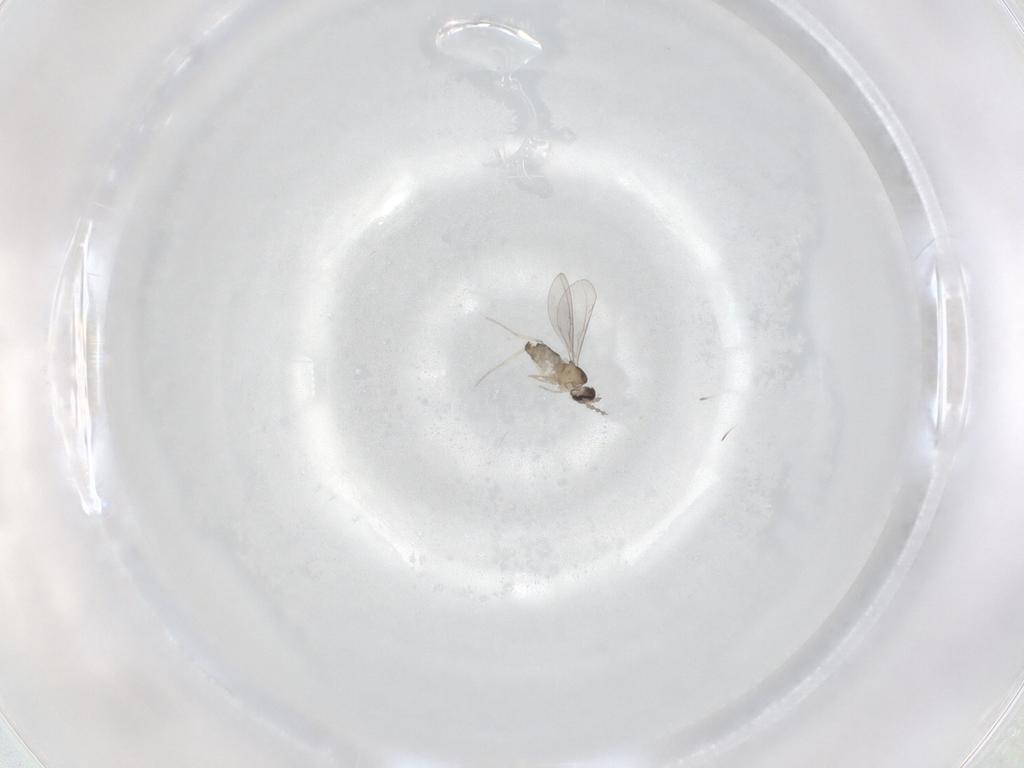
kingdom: Animalia
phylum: Arthropoda
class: Insecta
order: Diptera
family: Cecidomyiidae
